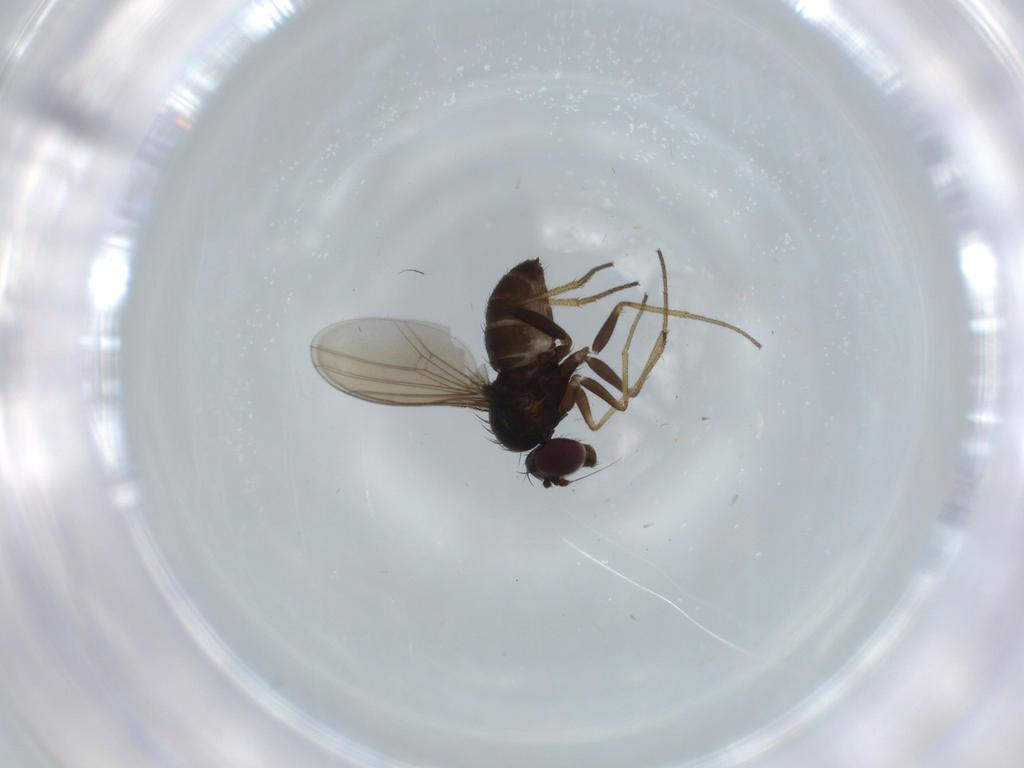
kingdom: Animalia
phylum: Arthropoda
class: Insecta
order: Diptera
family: Dolichopodidae
